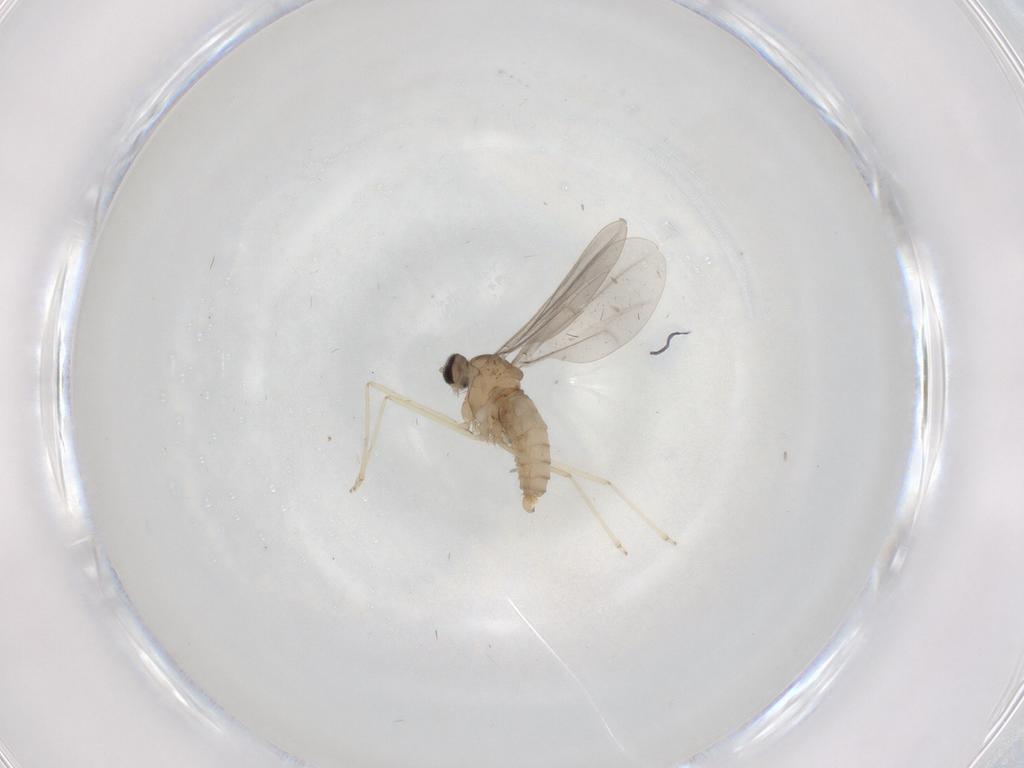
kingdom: Animalia
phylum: Arthropoda
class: Insecta
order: Diptera
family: Cecidomyiidae
